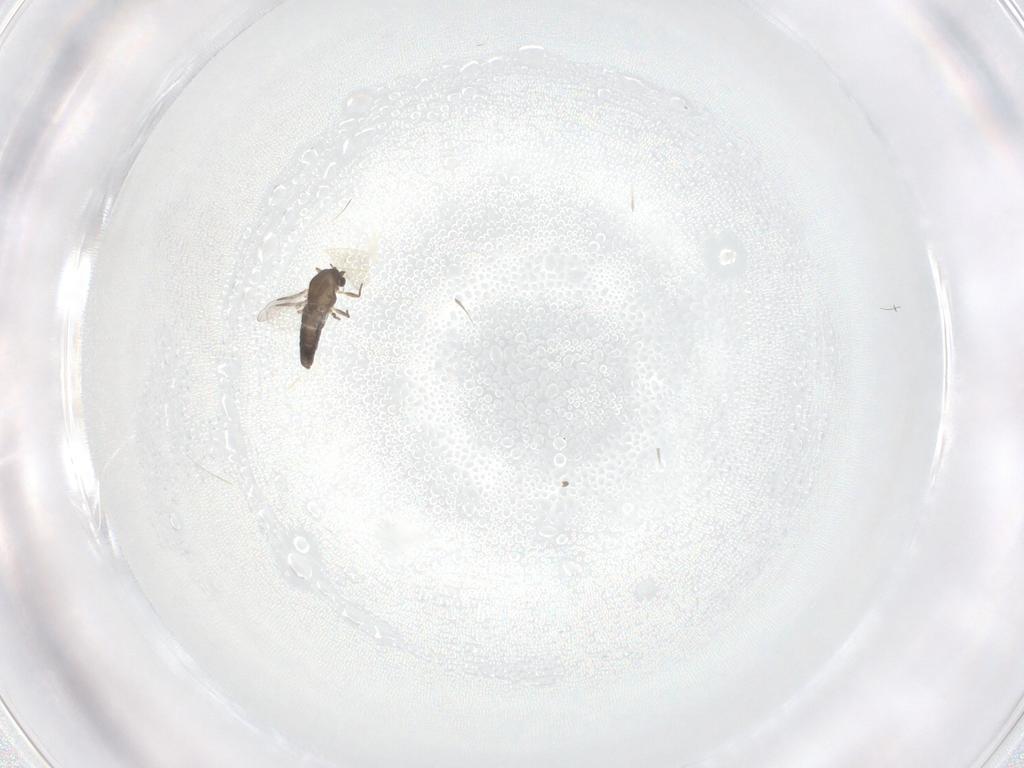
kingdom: Animalia
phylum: Arthropoda
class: Insecta
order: Diptera
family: Chironomidae
